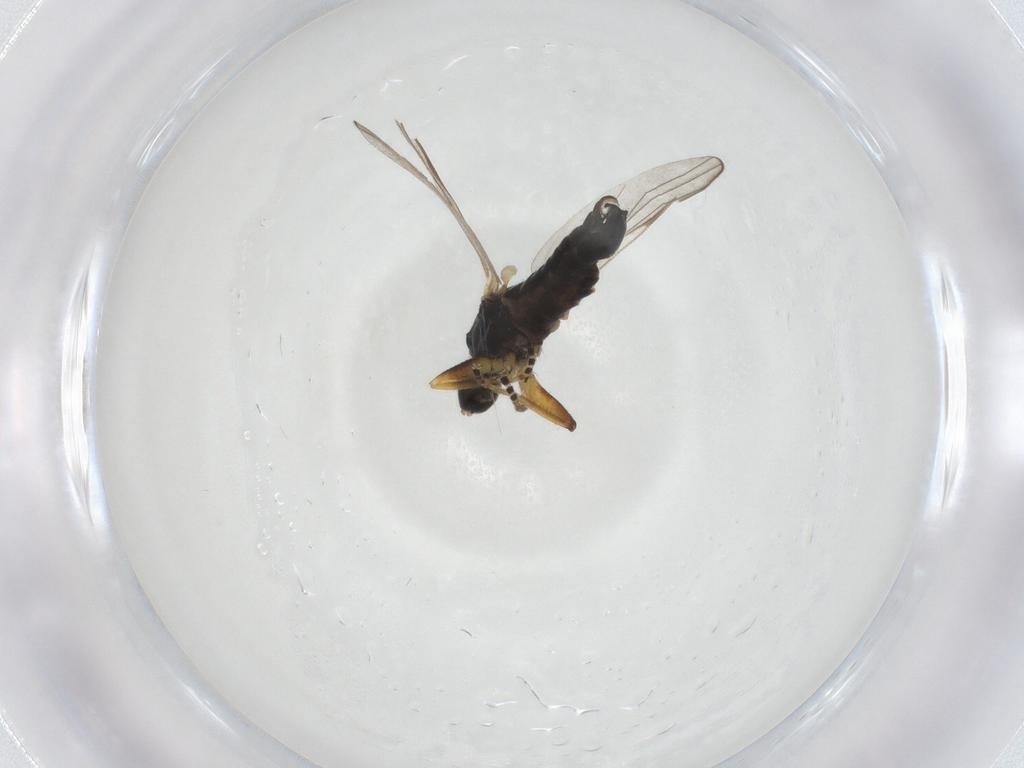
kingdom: Animalia
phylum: Arthropoda
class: Insecta
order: Diptera
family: Hybotidae
